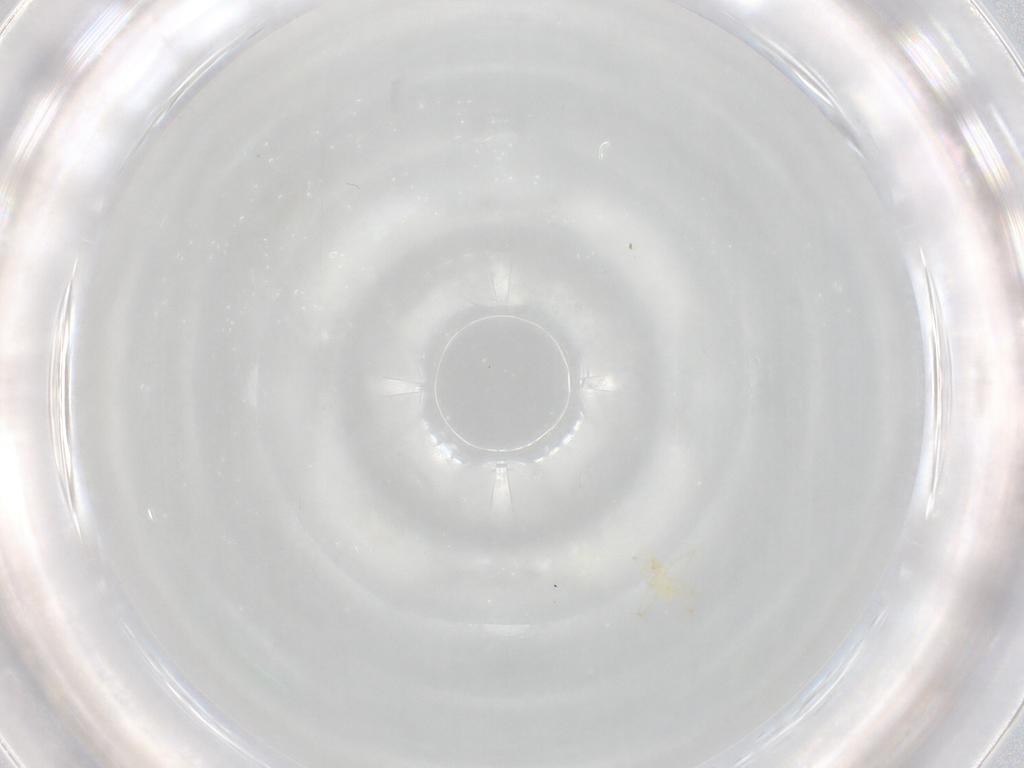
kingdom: Animalia
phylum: Arthropoda
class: Arachnida
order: Trombidiformes
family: Erythraeidae
